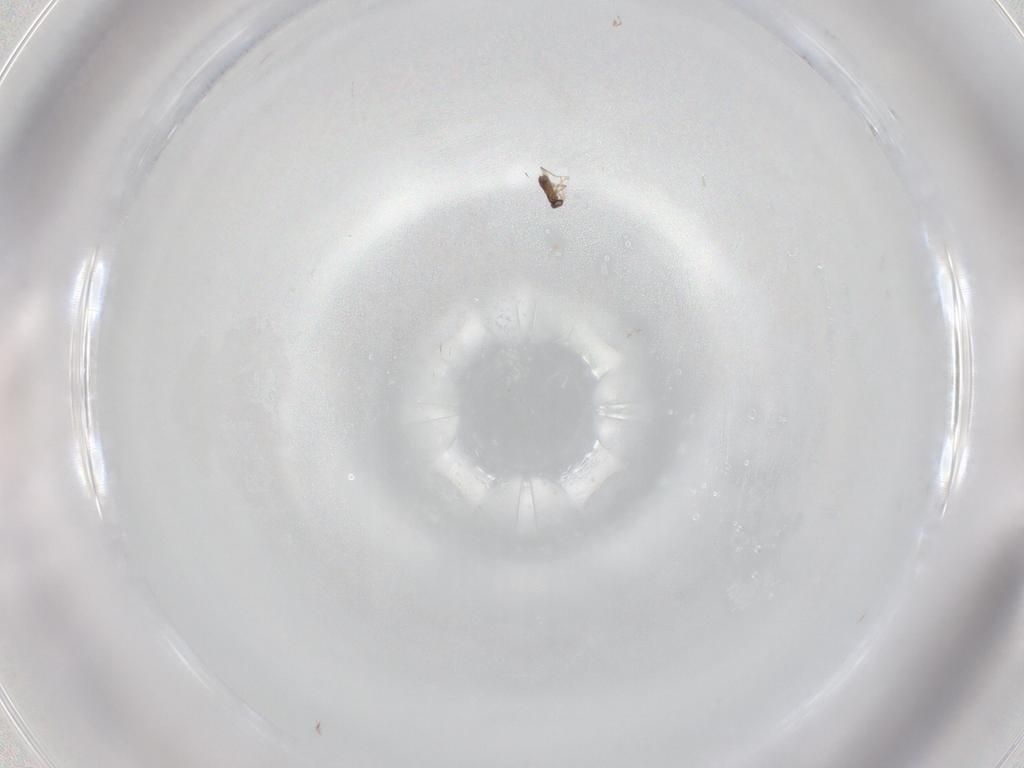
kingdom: Animalia
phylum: Arthropoda
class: Insecta
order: Hymenoptera
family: Mymaridae
